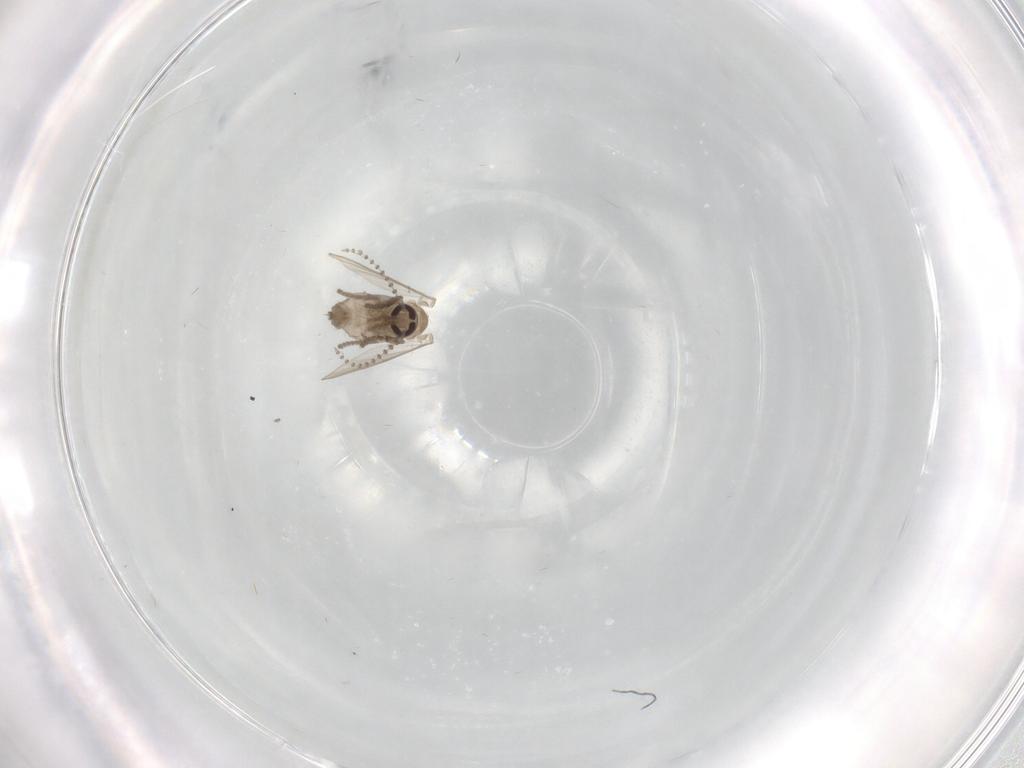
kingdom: Animalia
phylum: Arthropoda
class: Insecta
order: Diptera
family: Psychodidae
